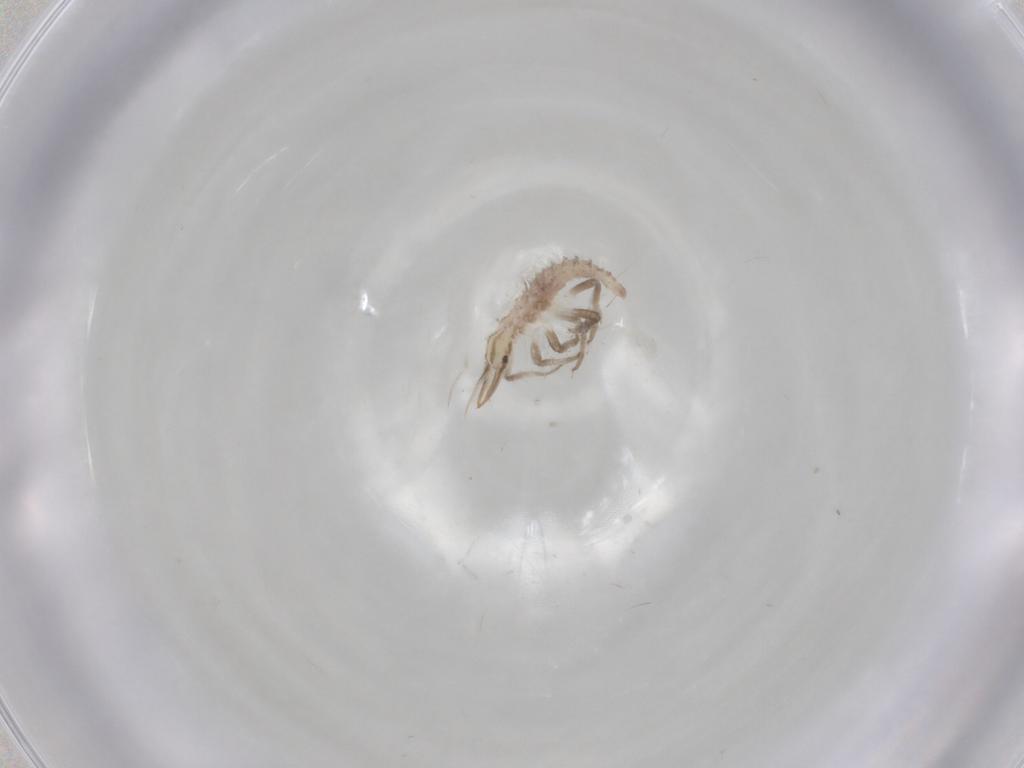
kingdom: Animalia
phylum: Arthropoda
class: Insecta
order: Neuroptera
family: Chrysopidae
